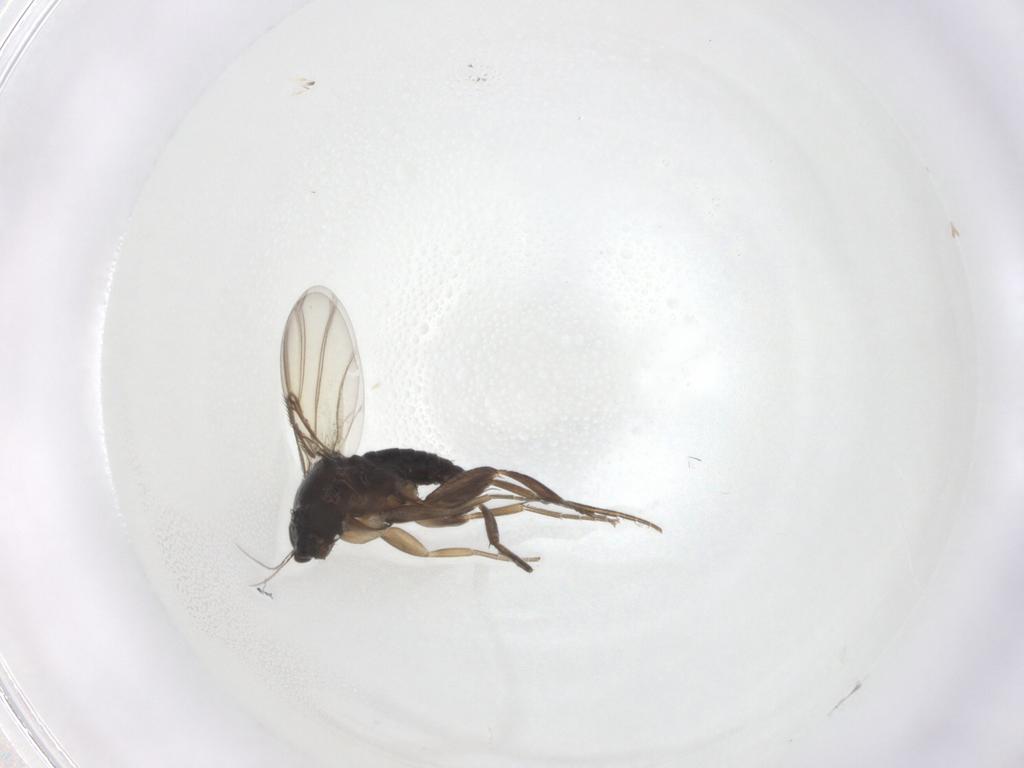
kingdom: Animalia
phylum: Arthropoda
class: Insecta
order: Diptera
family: Phoridae
